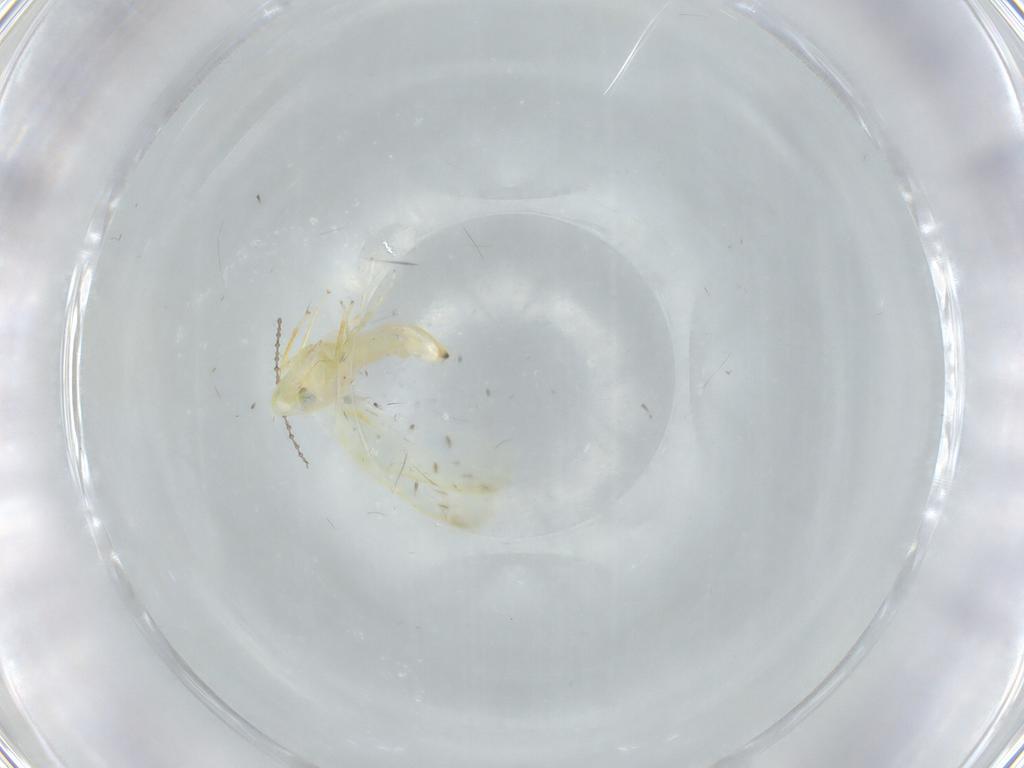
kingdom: Animalia
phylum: Arthropoda
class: Insecta
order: Hemiptera
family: Cicadellidae
